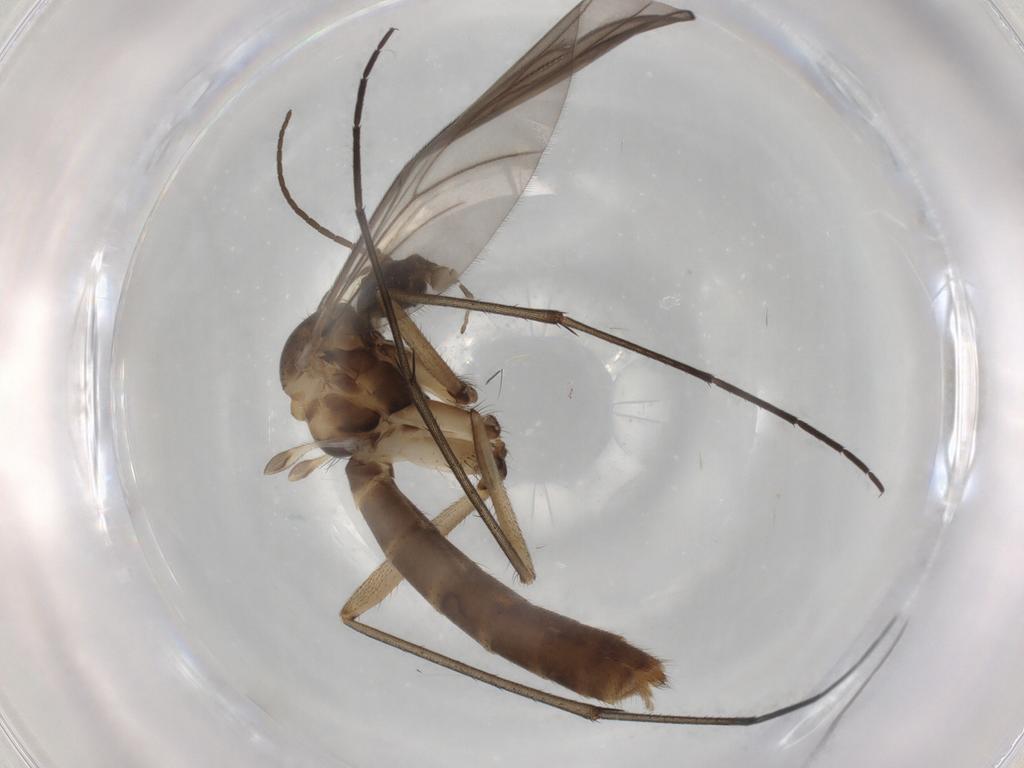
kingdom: Animalia
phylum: Arthropoda
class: Insecta
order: Diptera
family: Mycetophilidae
